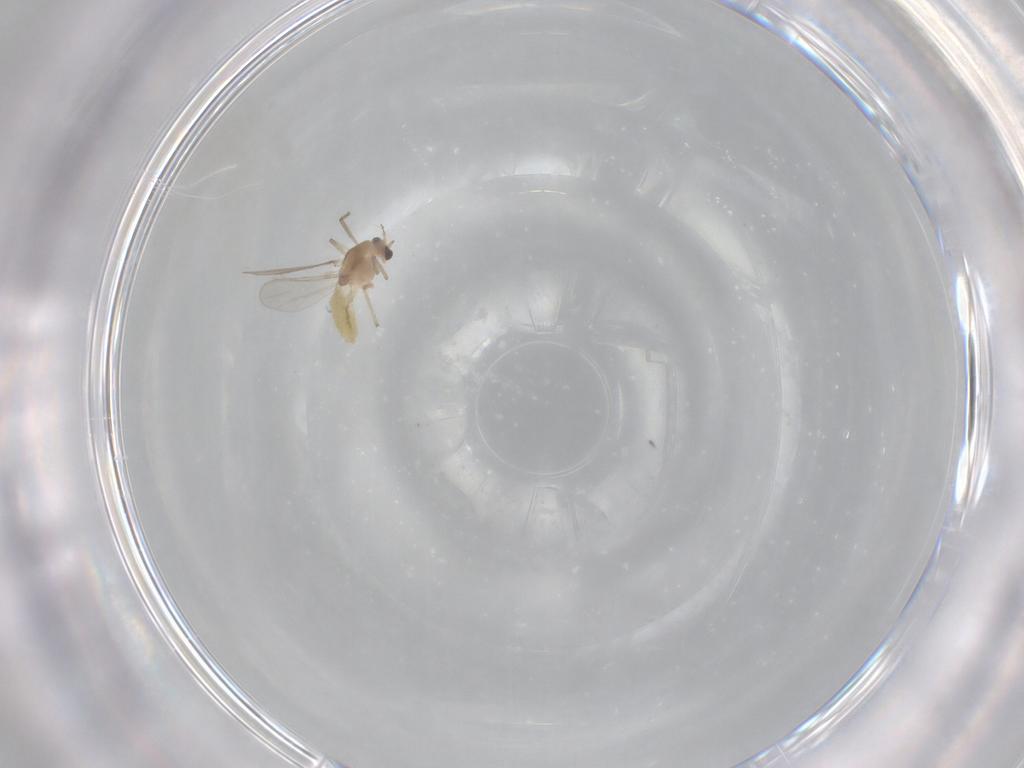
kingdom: Animalia
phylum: Arthropoda
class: Insecta
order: Diptera
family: Chironomidae
